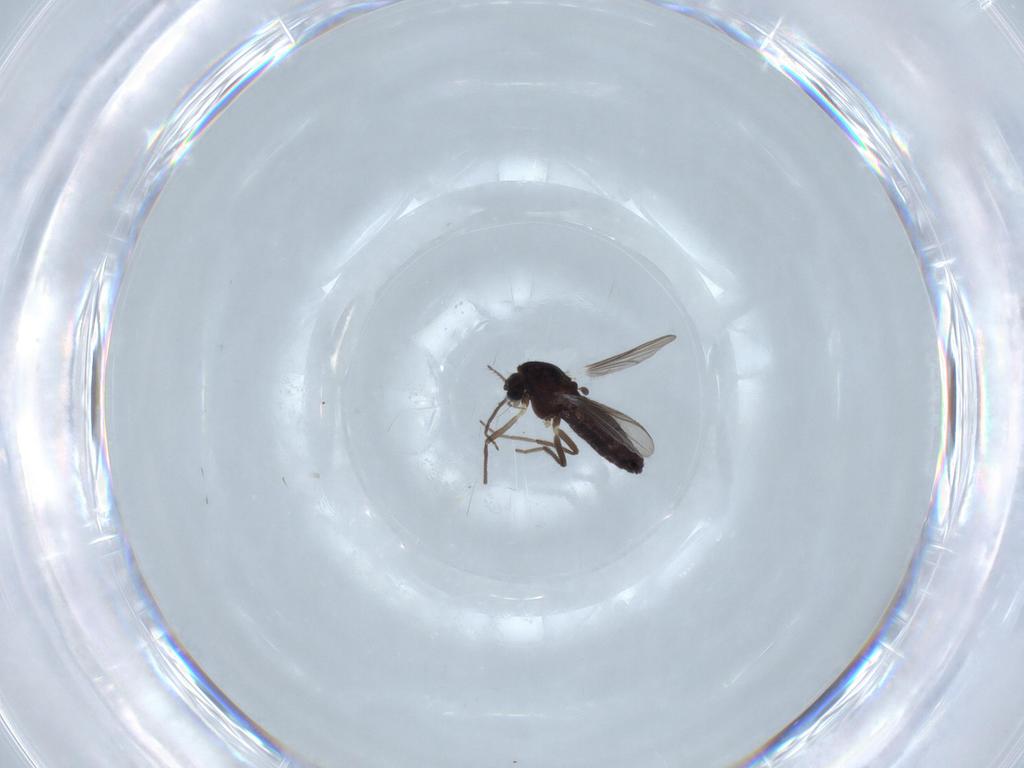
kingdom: Animalia
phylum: Arthropoda
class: Insecta
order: Diptera
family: Chironomidae
